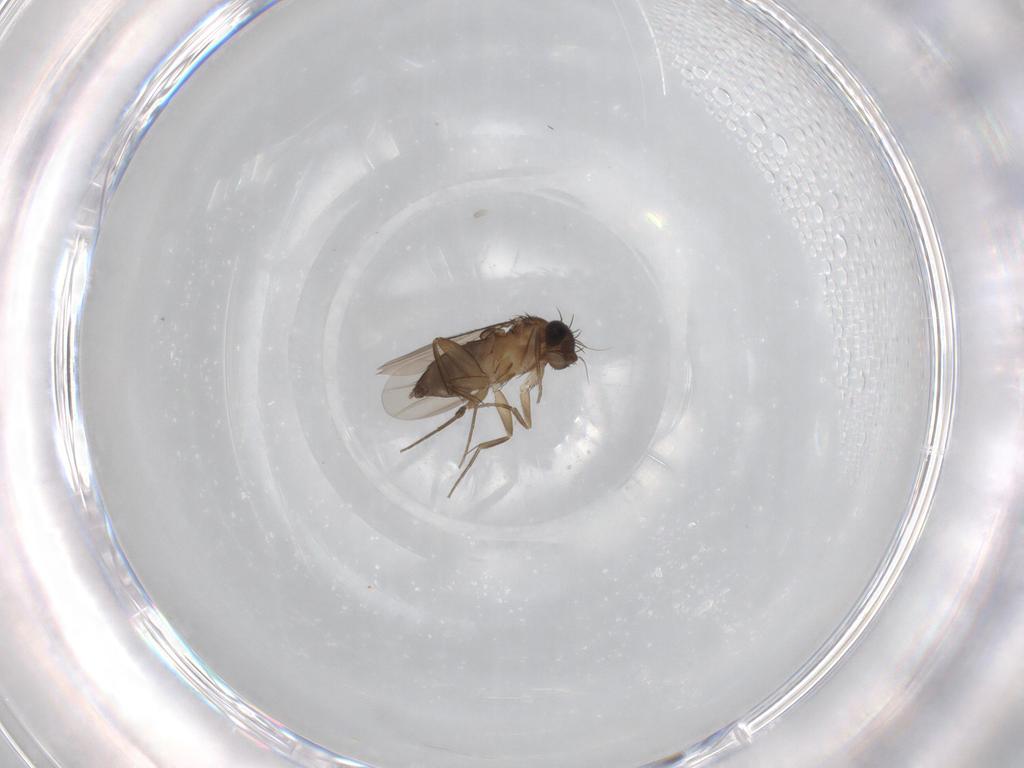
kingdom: Animalia
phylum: Arthropoda
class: Insecta
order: Diptera
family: Phoridae
